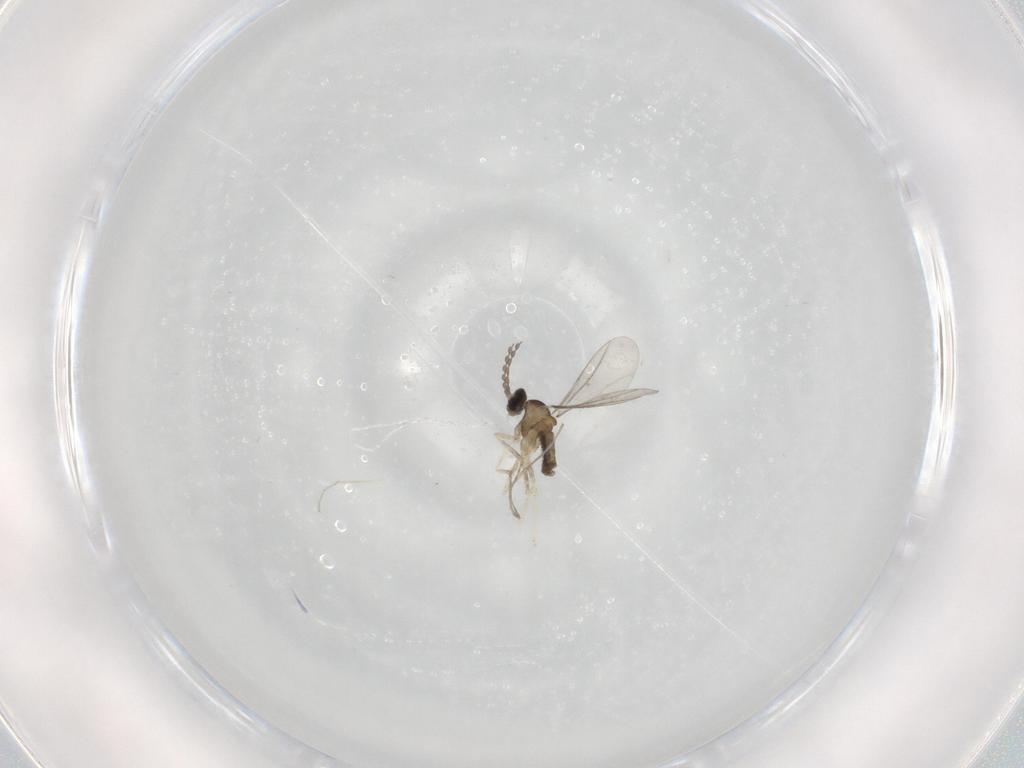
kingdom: Animalia
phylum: Arthropoda
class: Insecta
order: Diptera
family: Cecidomyiidae
